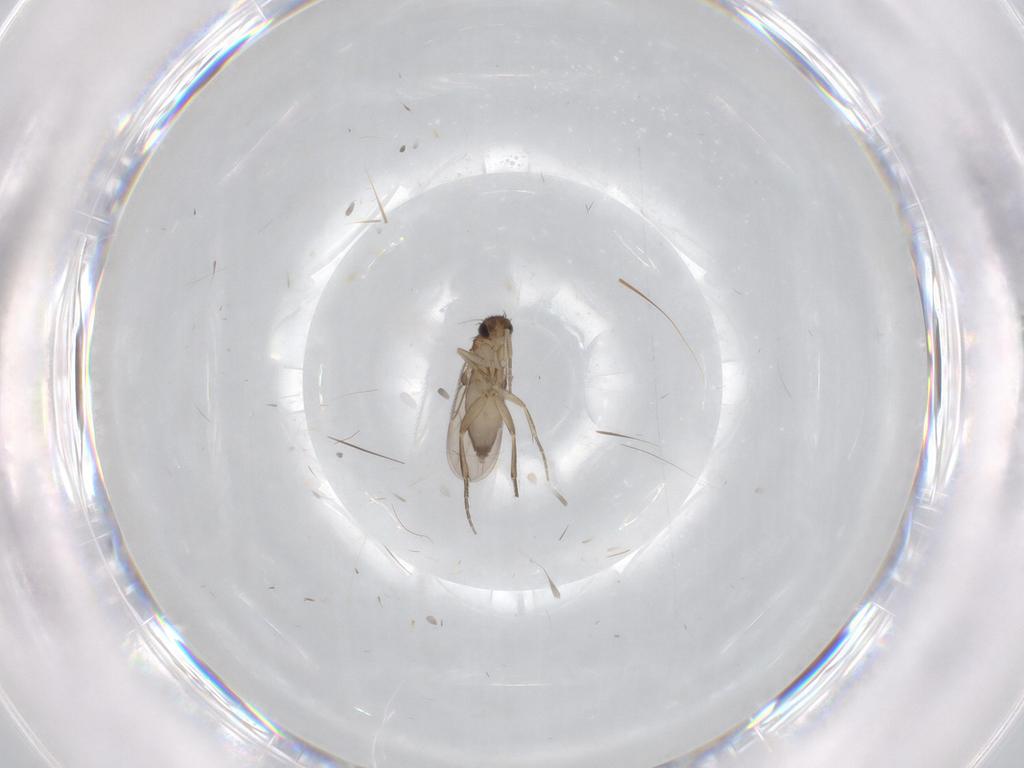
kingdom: Animalia
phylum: Arthropoda
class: Insecta
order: Diptera
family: Phoridae
